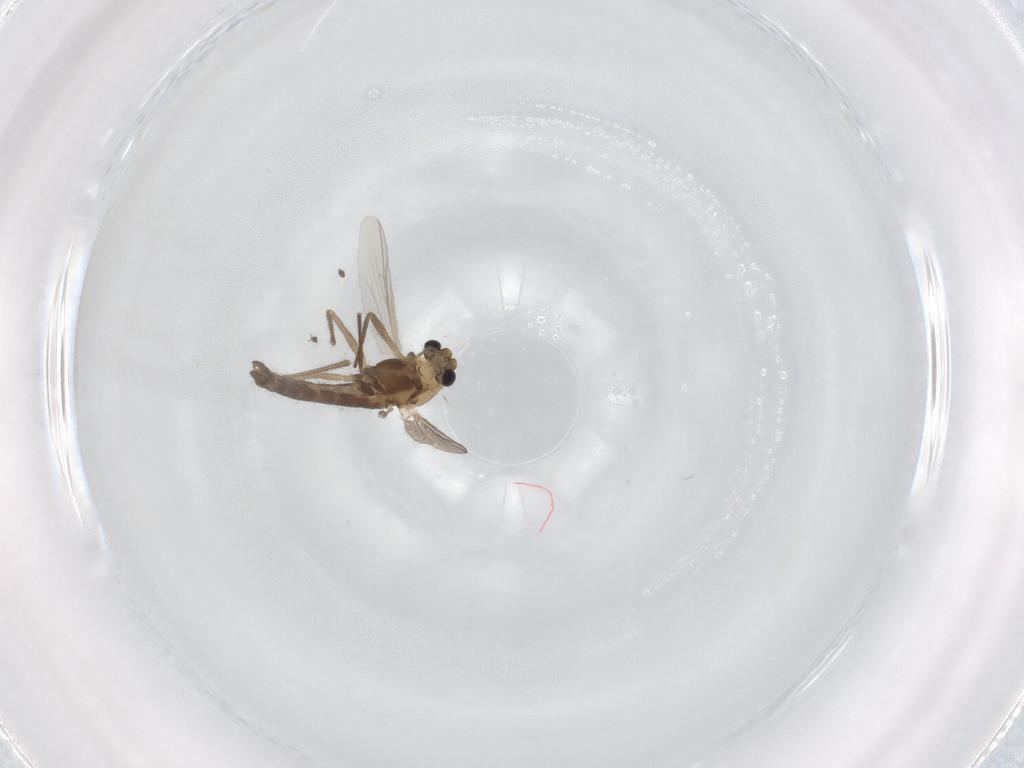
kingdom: Animalia
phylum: Arthropoda
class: Insecta
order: Diptera
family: Chironomidae
